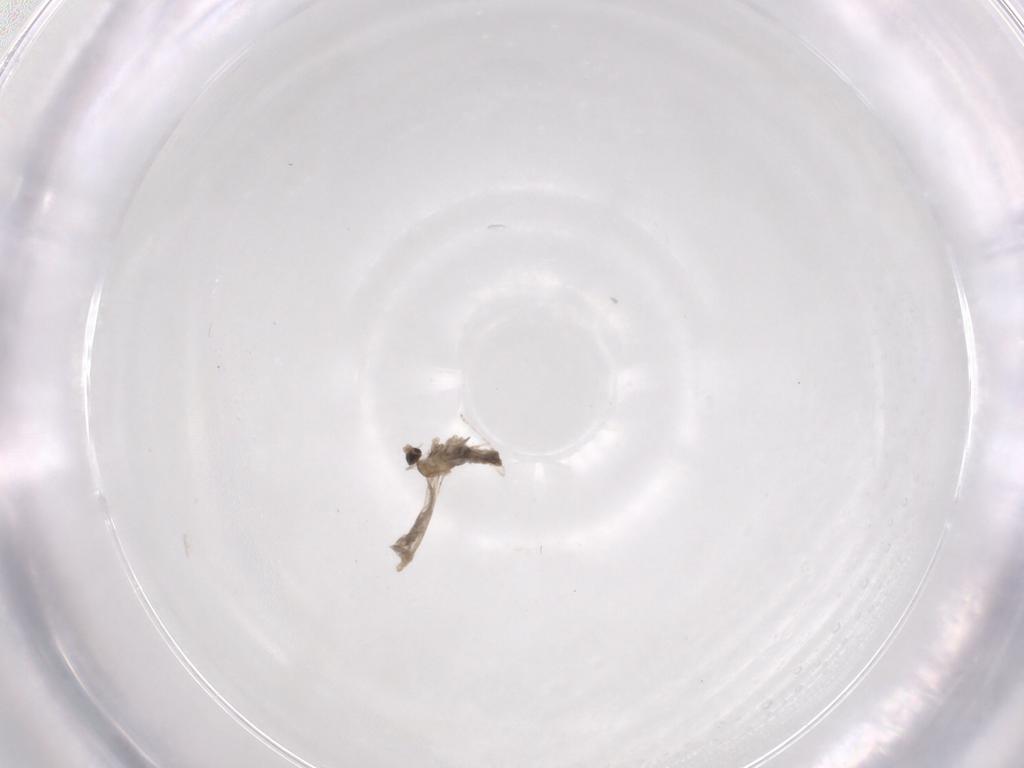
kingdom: Animalia
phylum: Arthropoda
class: Insecta
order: Diptera
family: Cecidomyiidae
